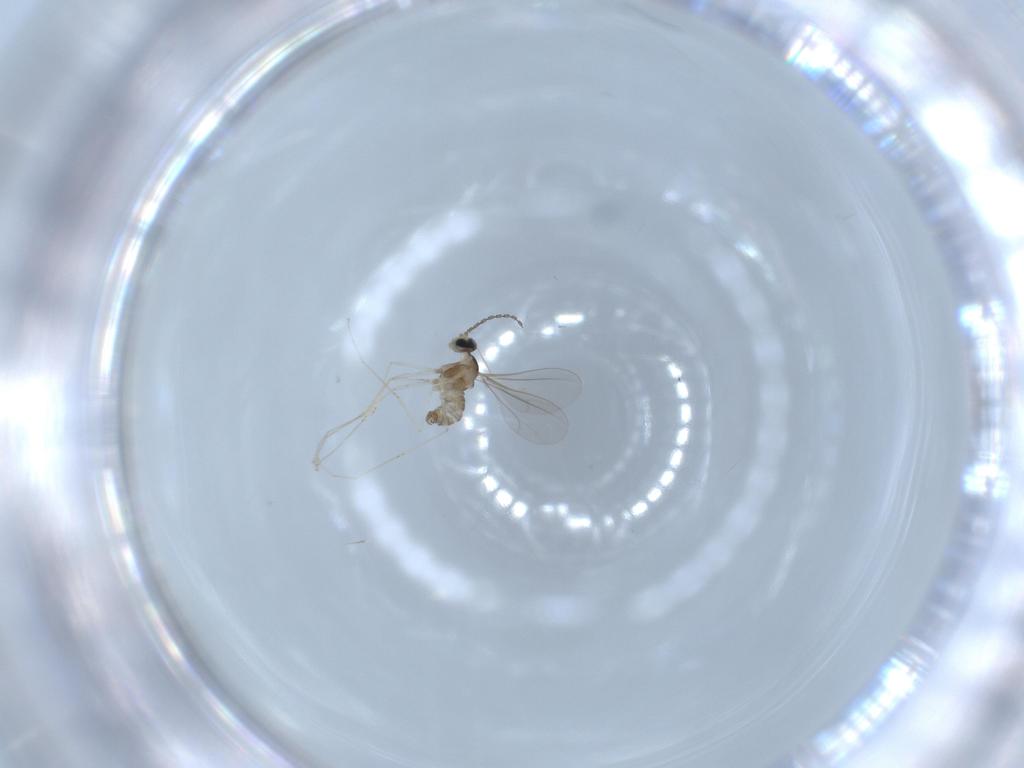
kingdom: Animalia
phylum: Arthropoda
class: Insecta
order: Diptera
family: Cecidomyiidae
